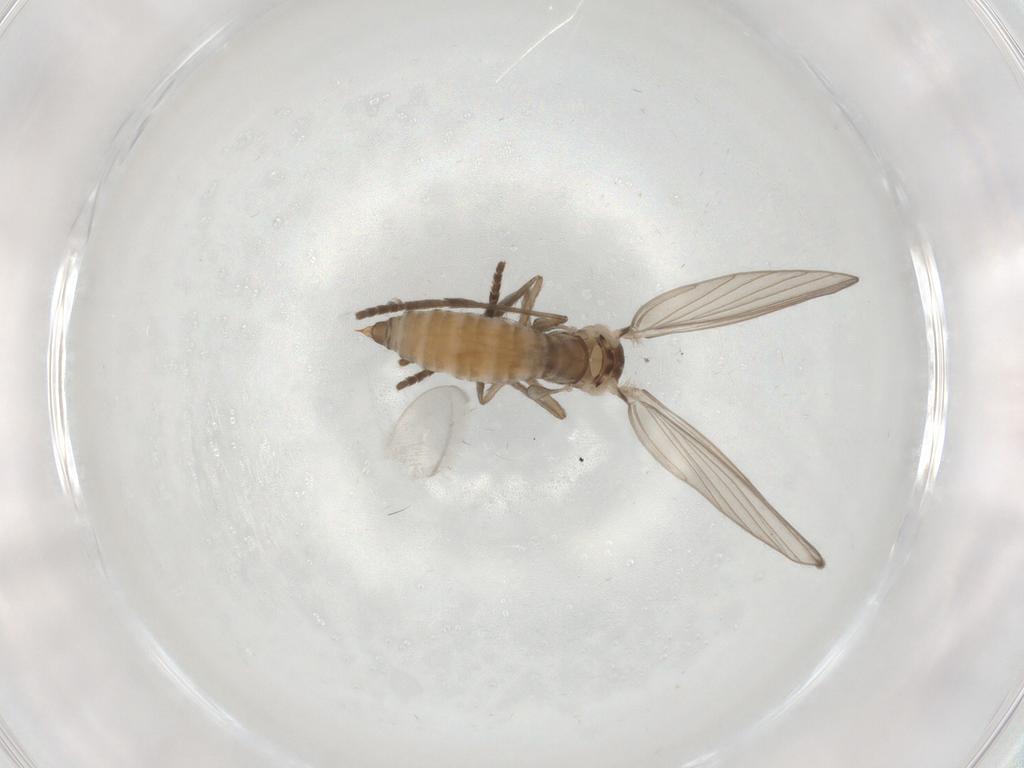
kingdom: Animalia
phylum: Arthropoda
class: Insecta
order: Diptera
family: Psychodidae
